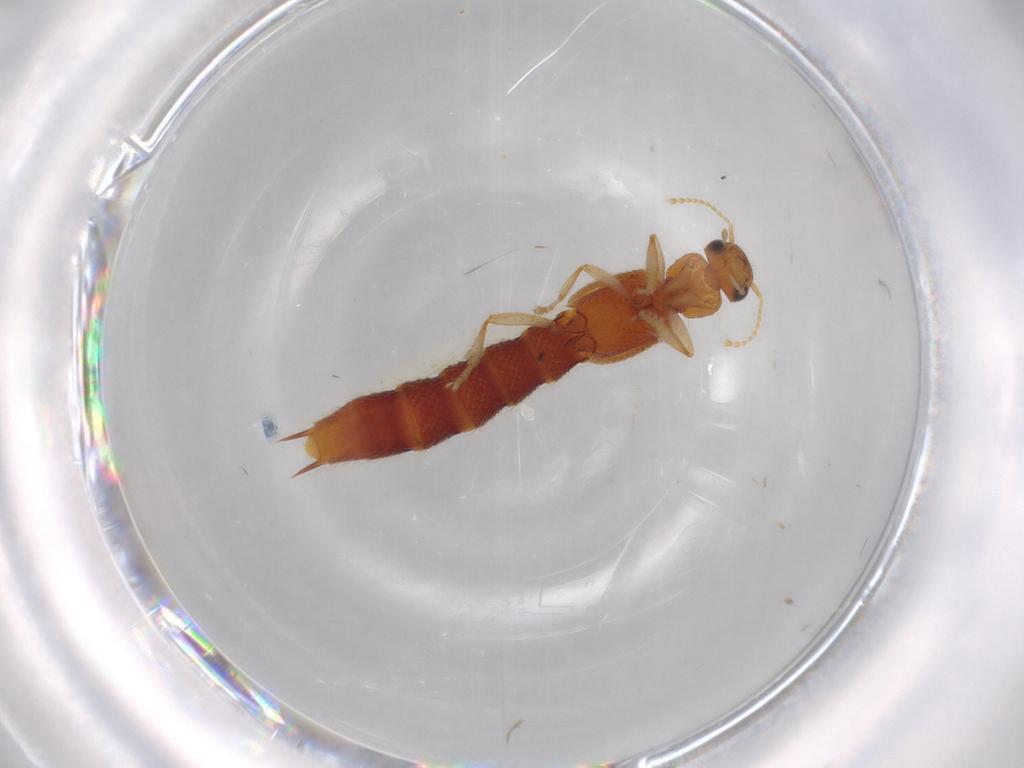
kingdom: Animalia
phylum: Arthropoda
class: Insecta
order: Coleoptera
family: Staphylinidae
